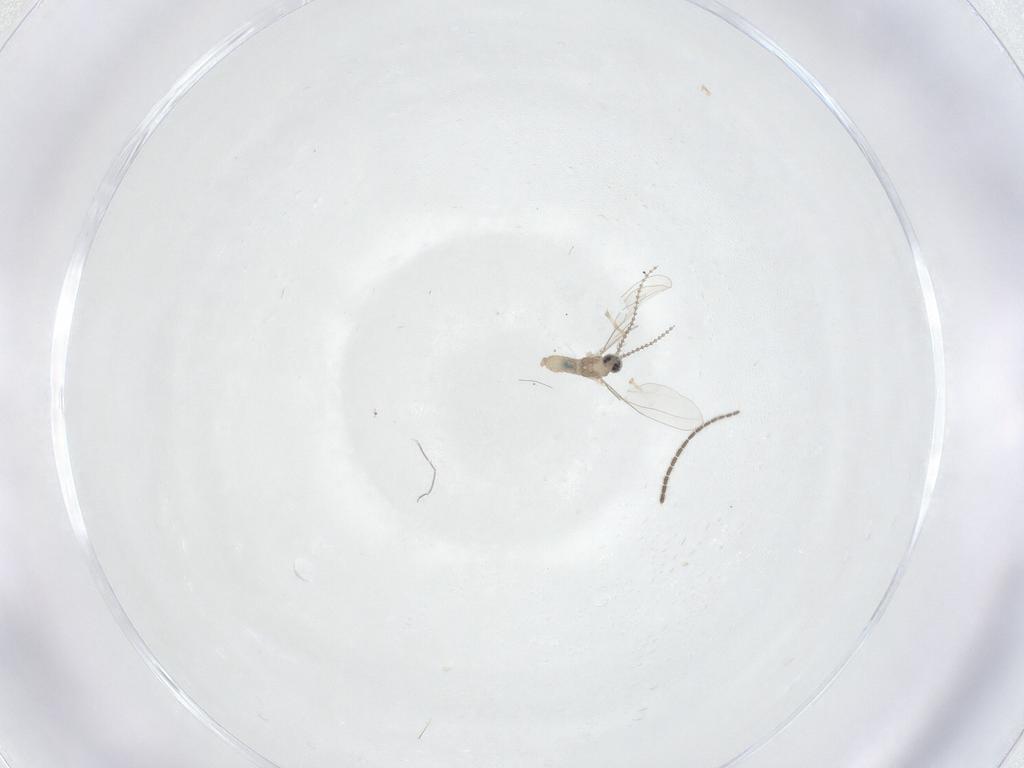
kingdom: Animalia
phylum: Arthropoda
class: Insecta
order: Diptera
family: Sciaridae
